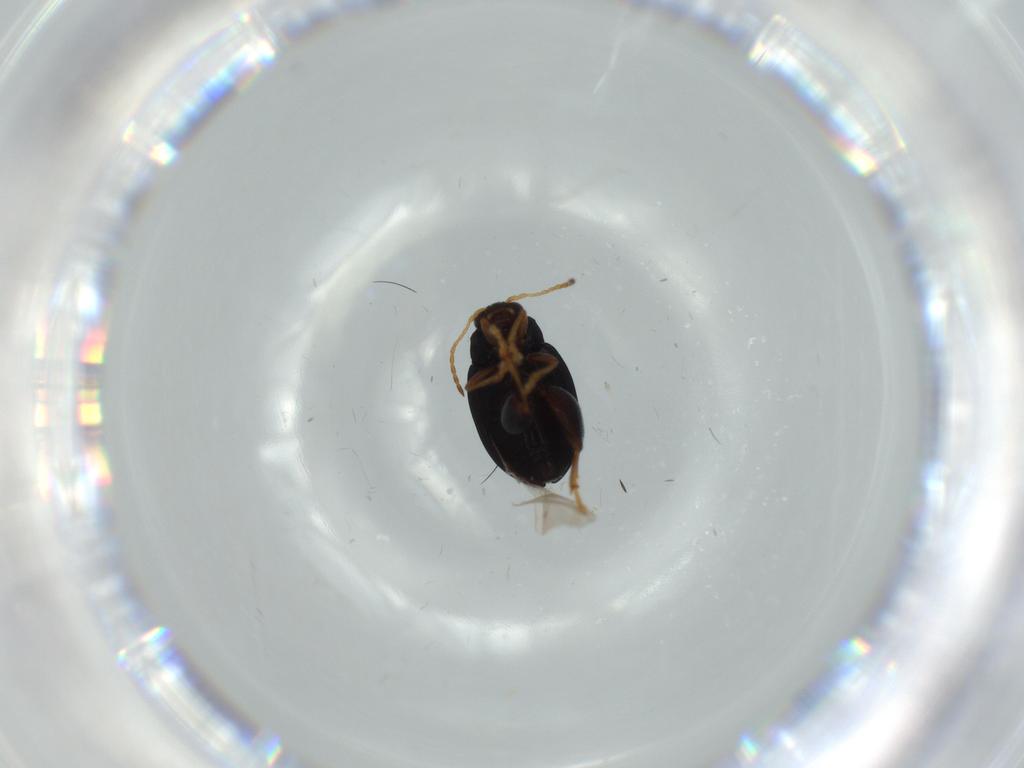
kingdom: Animalia
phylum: Arthropoda
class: Insecta
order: Coleoptera
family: Chrysomelidae
